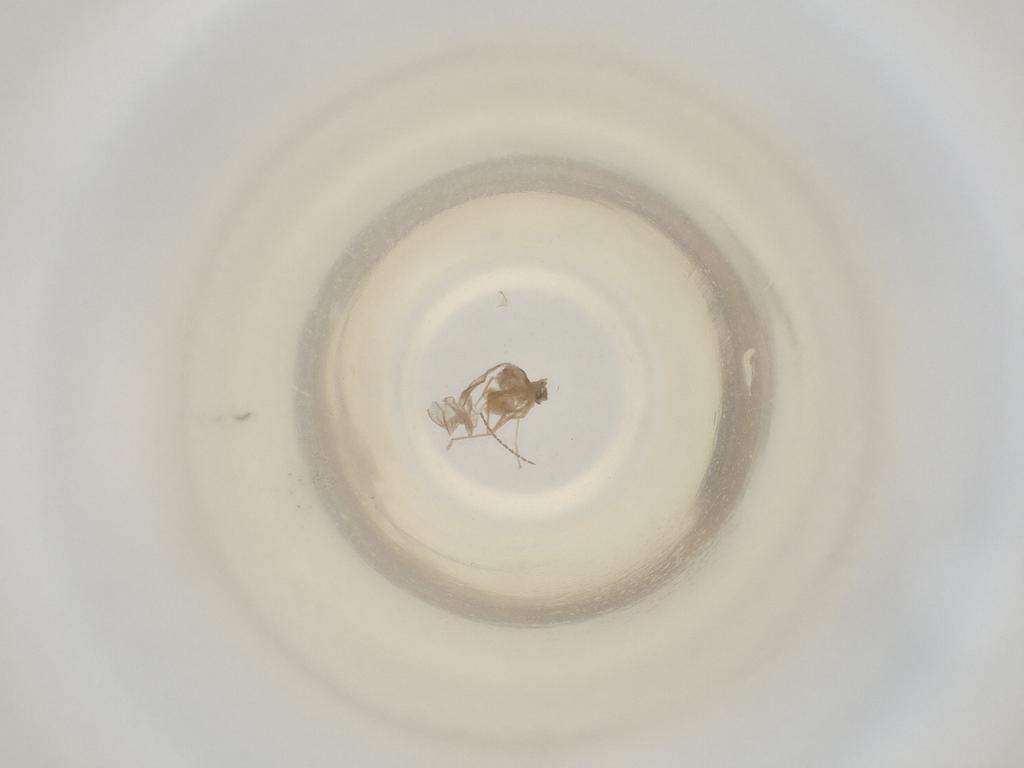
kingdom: Animalia
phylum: Arthropoda
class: Insecta
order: Diptera
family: Cecidomyiidae
